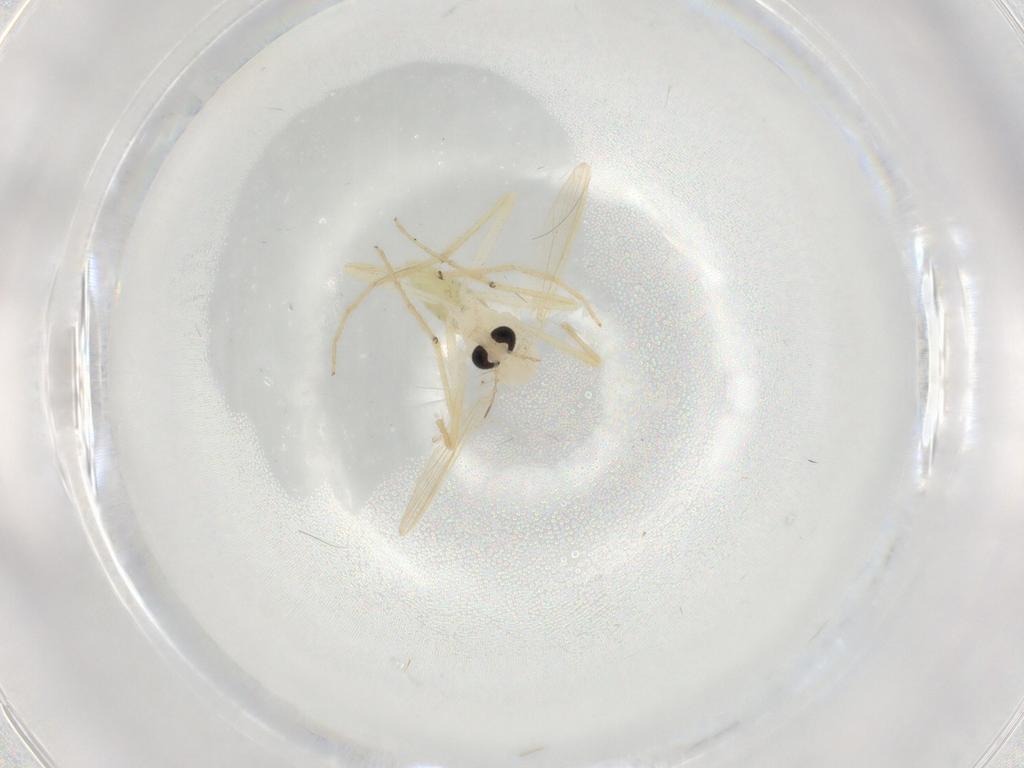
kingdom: Animalia
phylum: Arthropoda
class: Insecta
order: Diptera
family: Chironomidae
